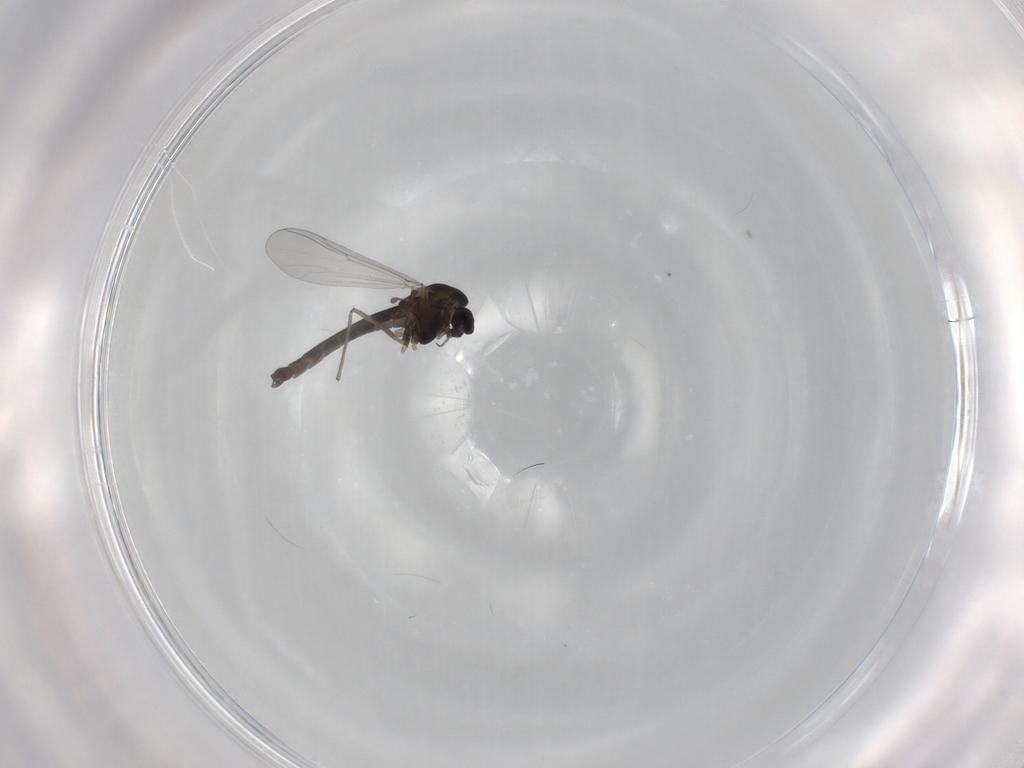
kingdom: Animalia
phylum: Arthropoda
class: Insecta
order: Diptera
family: Chironomidae
